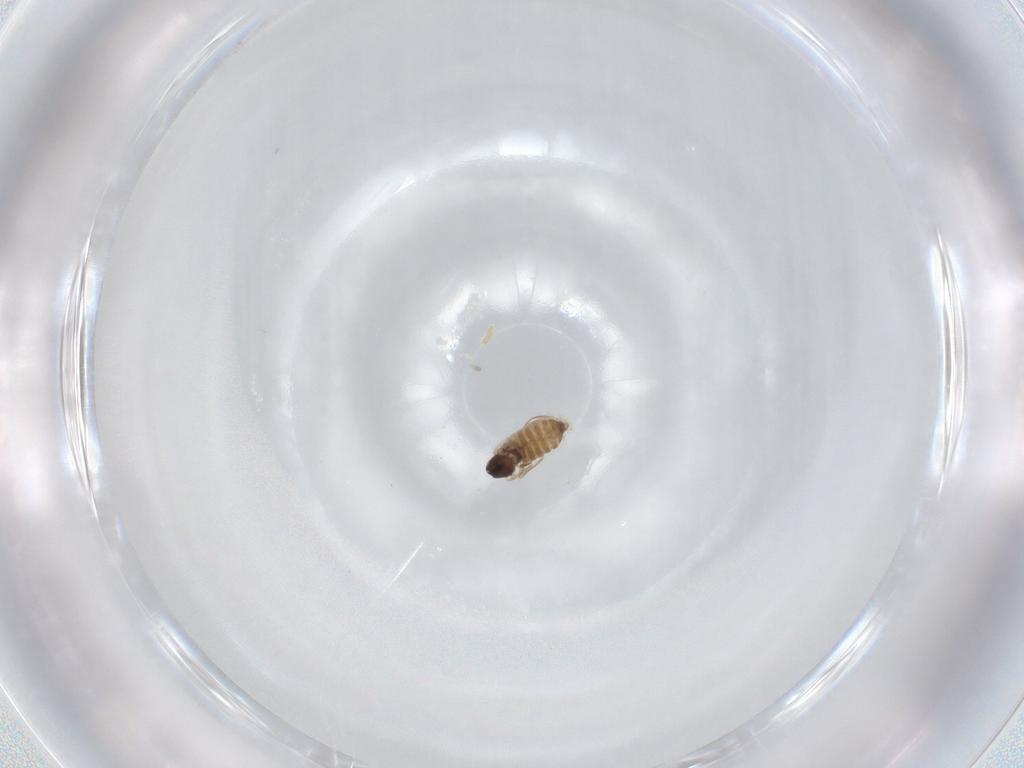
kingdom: Animalia
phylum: Arthropoda
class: Insecta
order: Diptera
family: Cecidomyiidae
